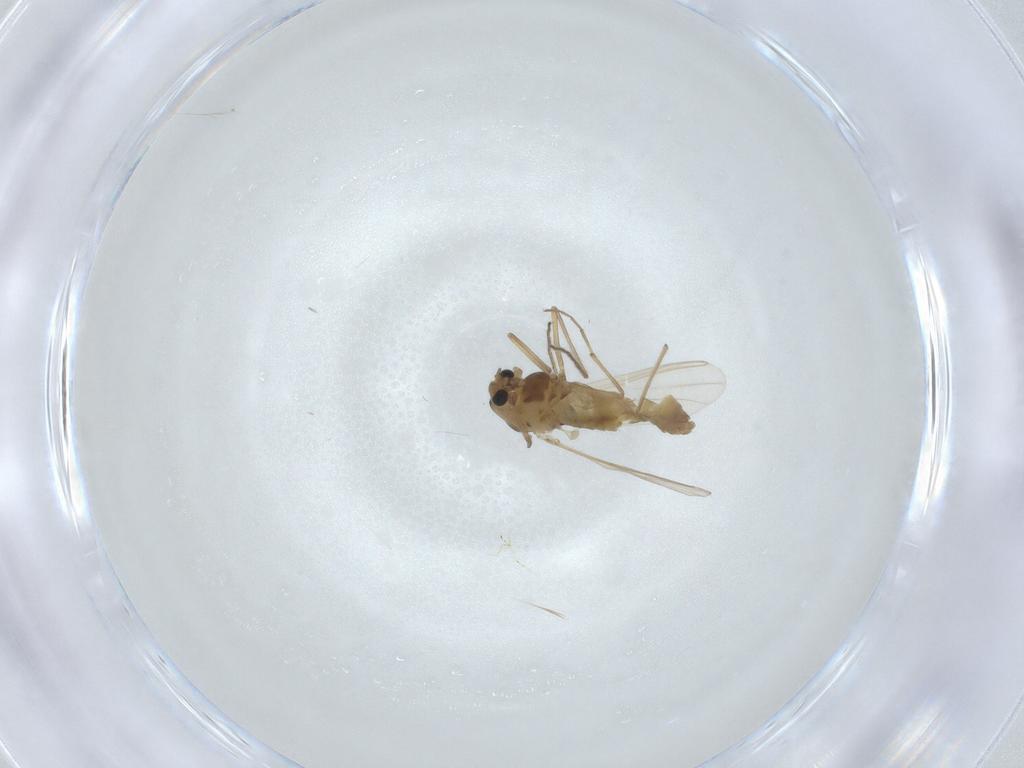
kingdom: Animalia
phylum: Arthropoda
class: Insecta
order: Diptera
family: Chironomidae
